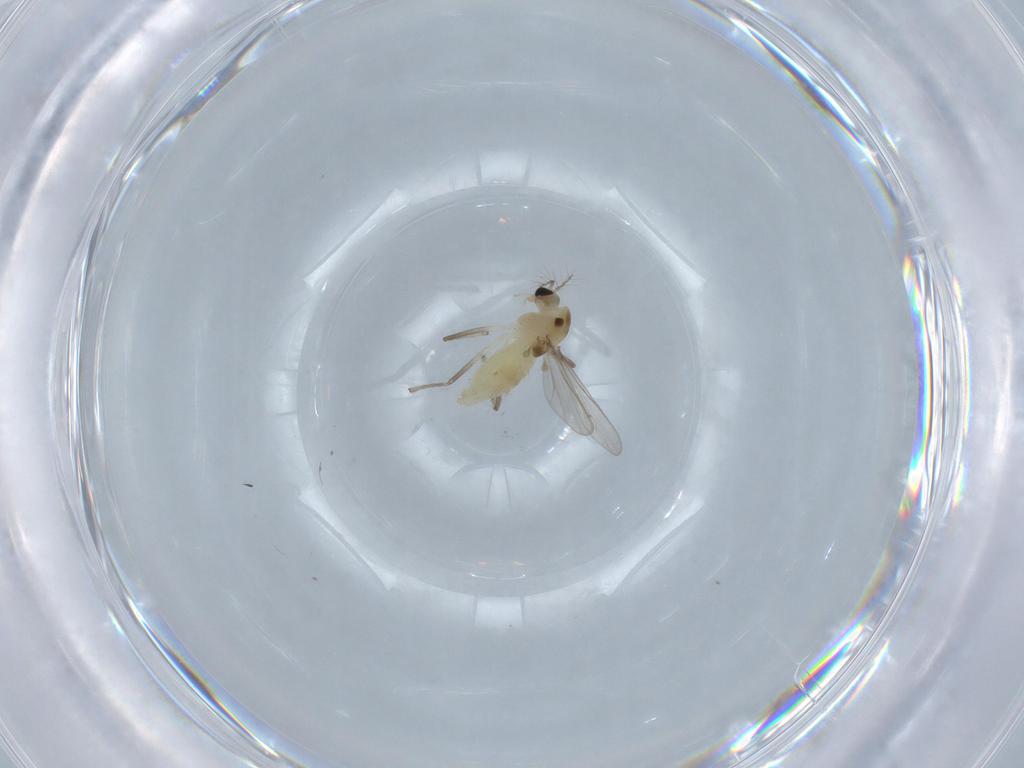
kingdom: Animalia
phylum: Arthropoda
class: Insecta
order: Diptera
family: Chironomidae
